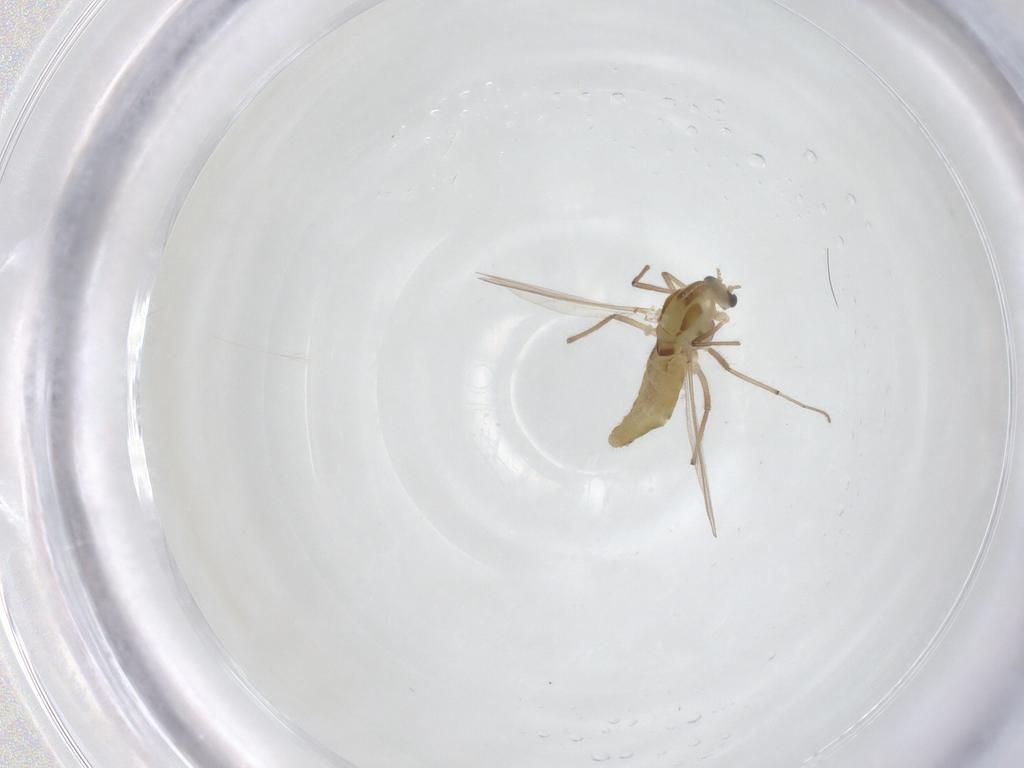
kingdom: Animalia
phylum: Arthropoda
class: Insecta
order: Diptera
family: Chironomidae
